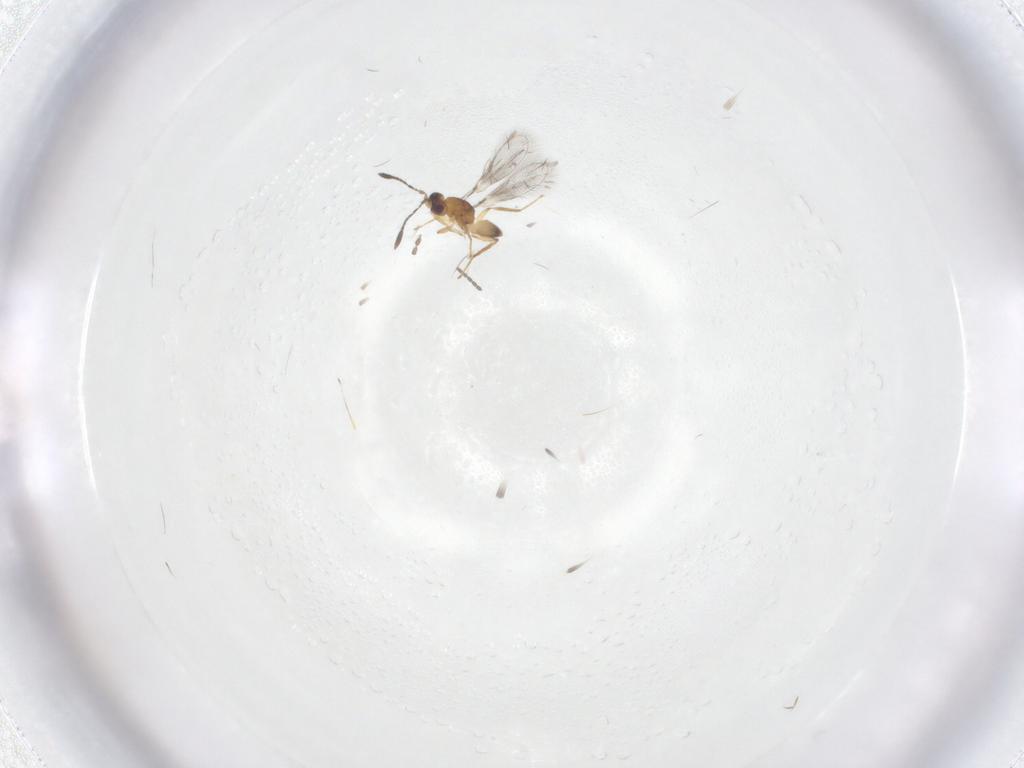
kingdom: Animalia
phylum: Arthropoda
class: Insecta
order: Hymenoptera
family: Mymaridae
